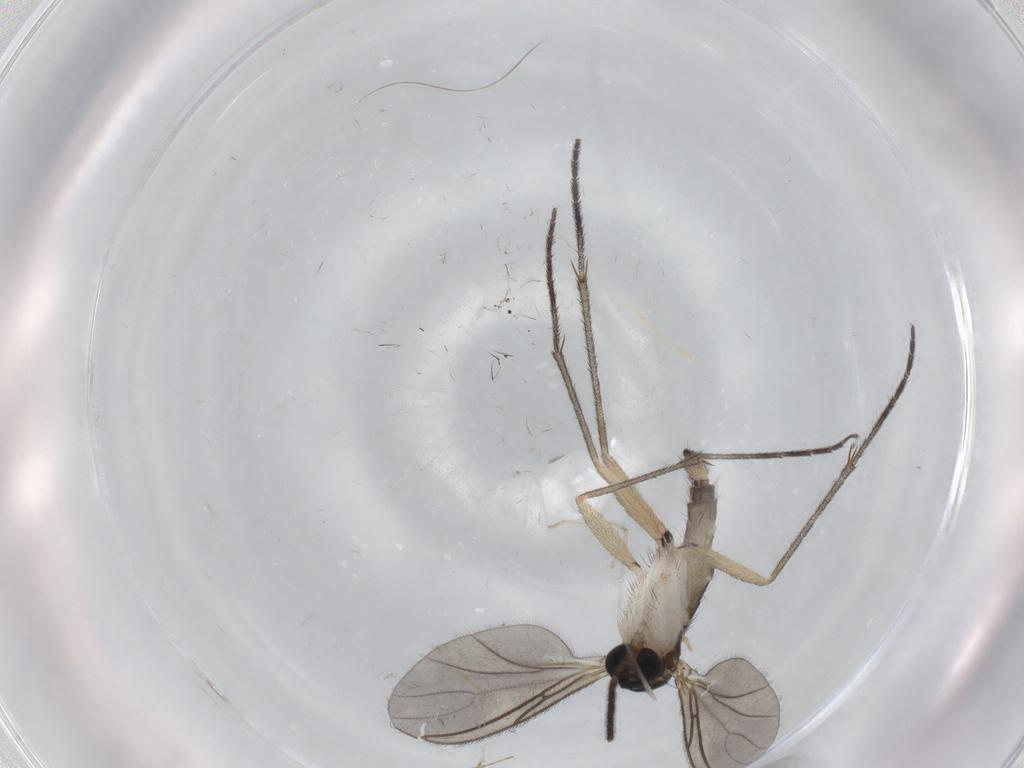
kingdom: Animalia
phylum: Arthropoda
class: Insecta
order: Diptera
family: Sciaridae
